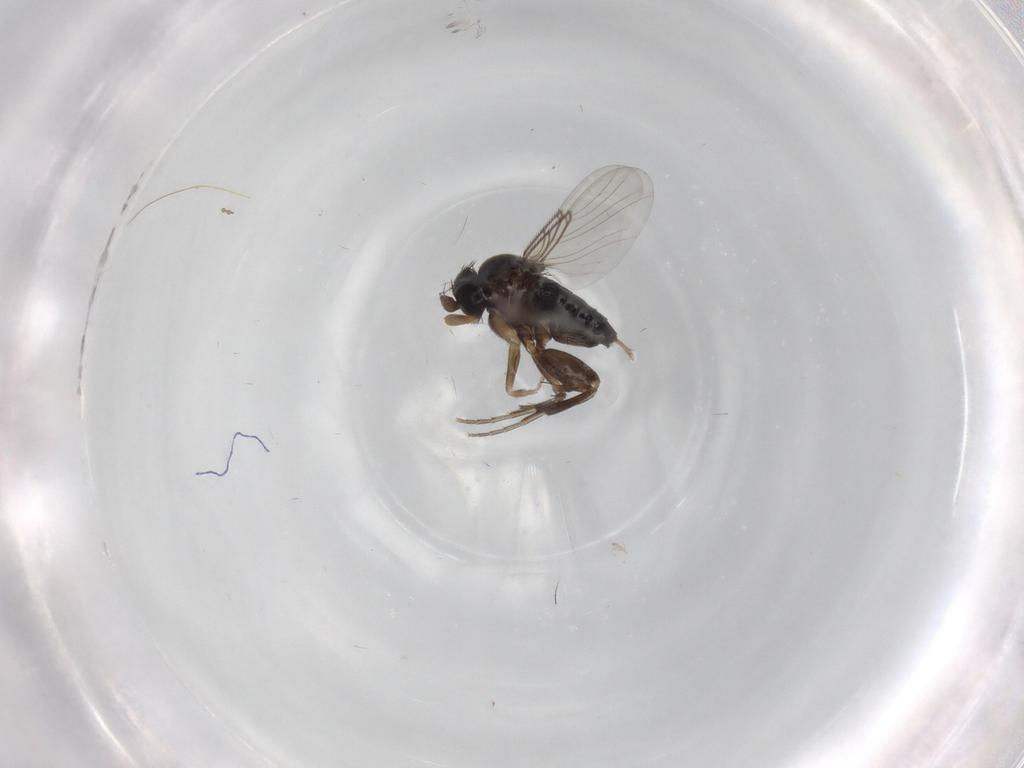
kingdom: Animalia
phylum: Arthropoda
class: Insecta
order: Diptera
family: Phoridae
